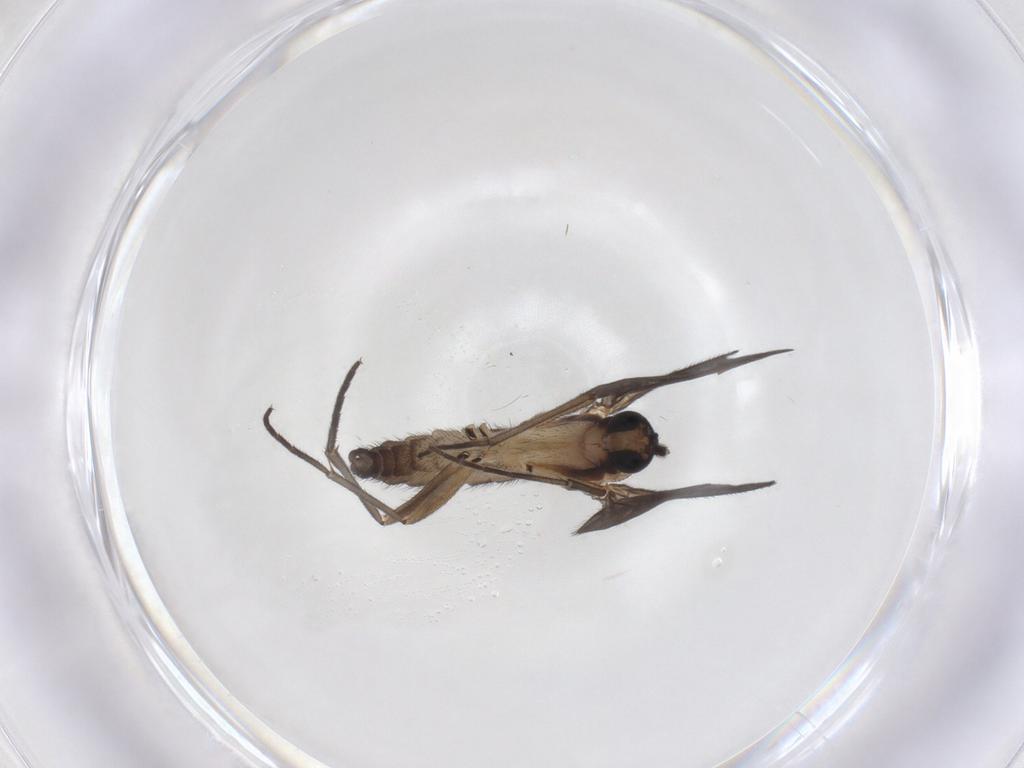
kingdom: Animalia
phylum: Arthropoda
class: Insecta
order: Diptera
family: Sciaridae
